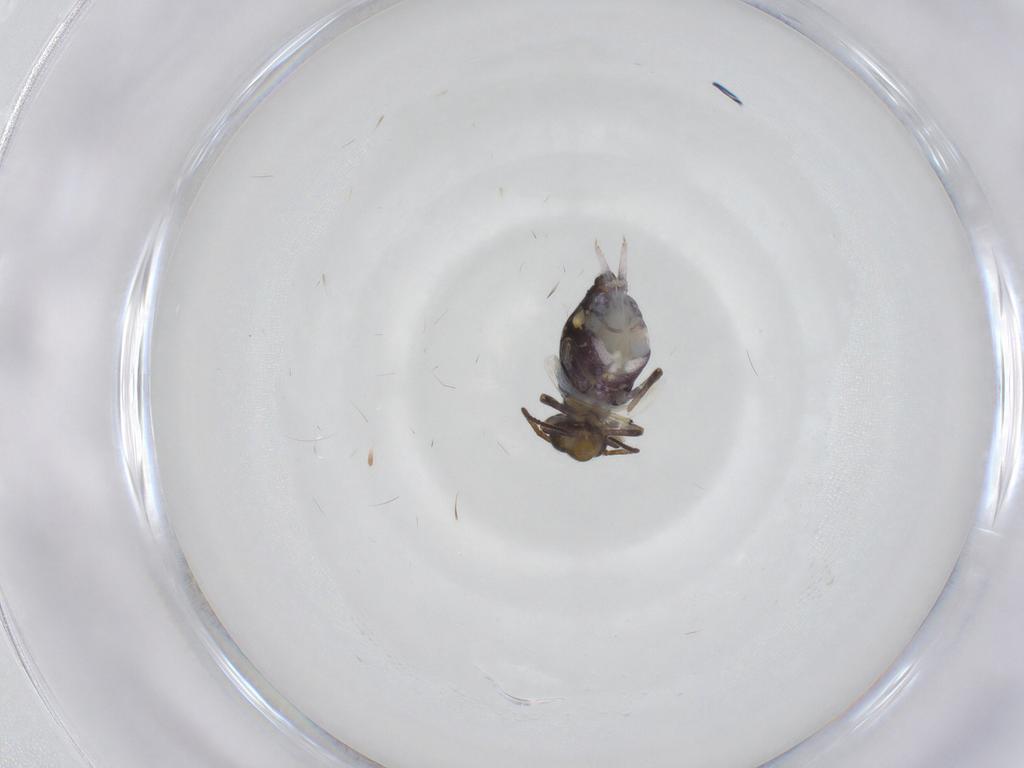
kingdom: Animalia
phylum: Arthropoda
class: Collembola
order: Symphypleona
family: Katiannidae
